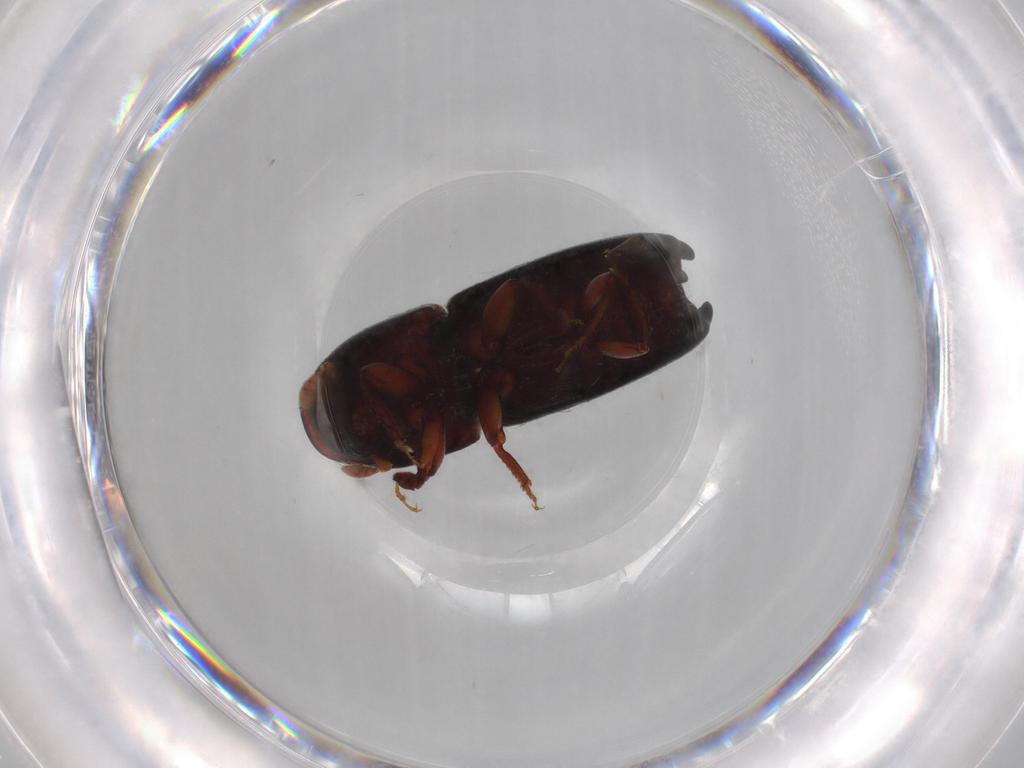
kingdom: Animalia
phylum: Arthropoda
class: Insecta
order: Coleoptera
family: Curculionidae
